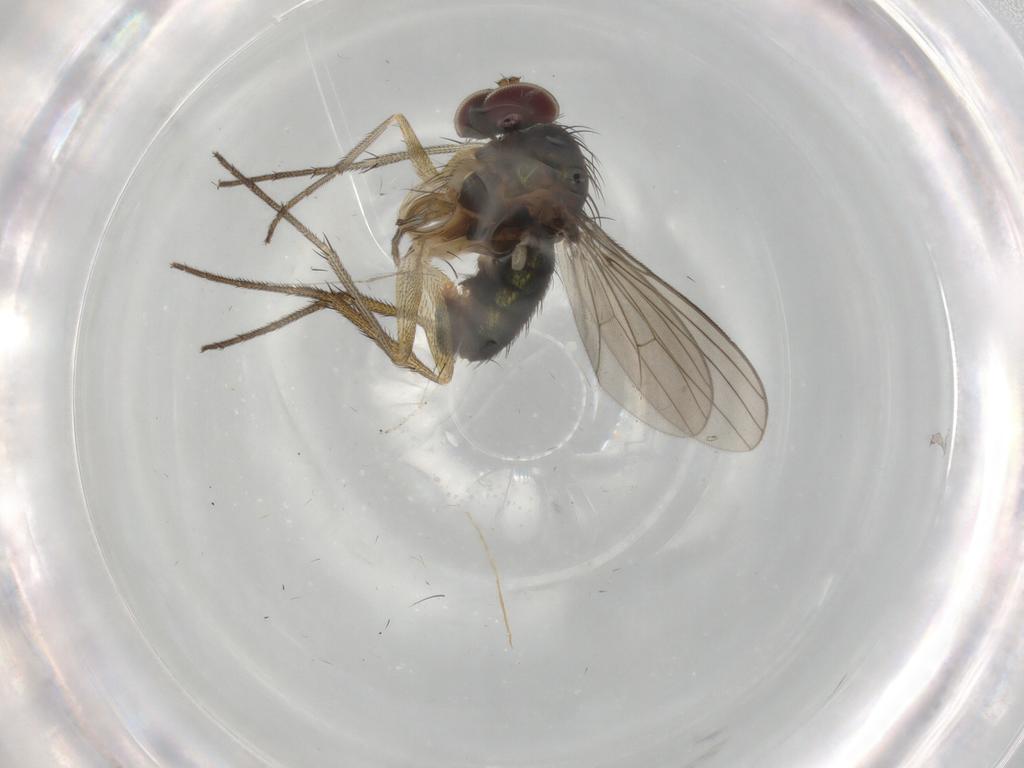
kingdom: Animalia
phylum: Arthropoda
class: Insecta
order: Diptera
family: Dolichopodidae
